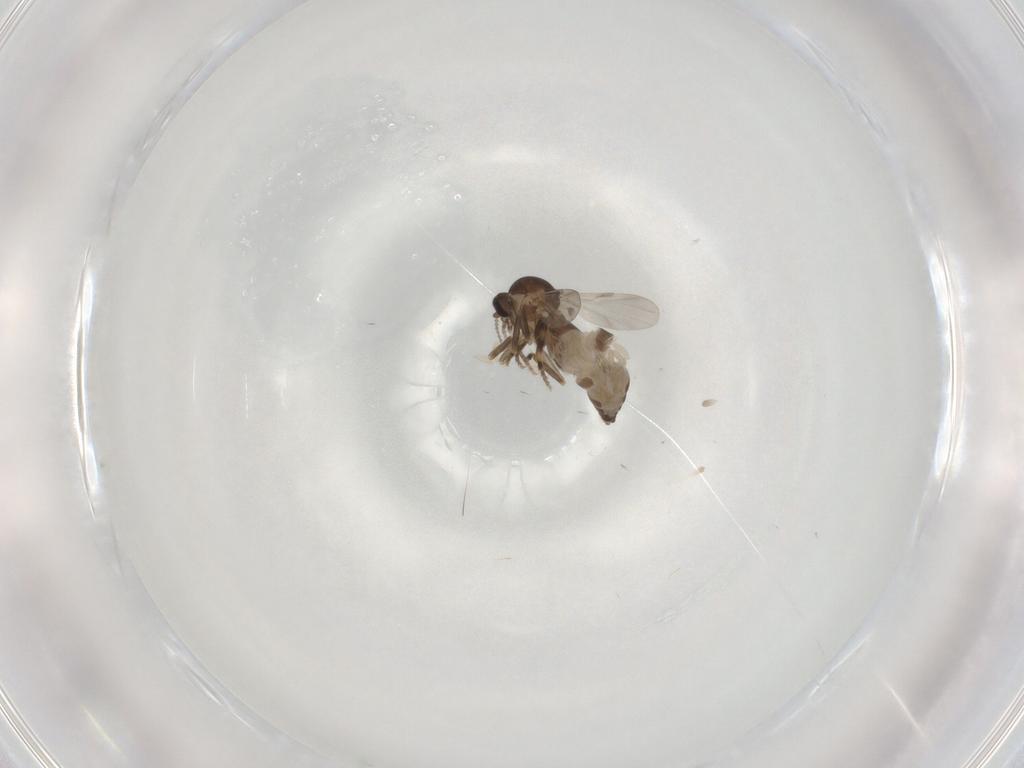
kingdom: Animalia
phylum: Arthropoda
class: Insecta
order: Diptera
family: Ceratopogonidae
